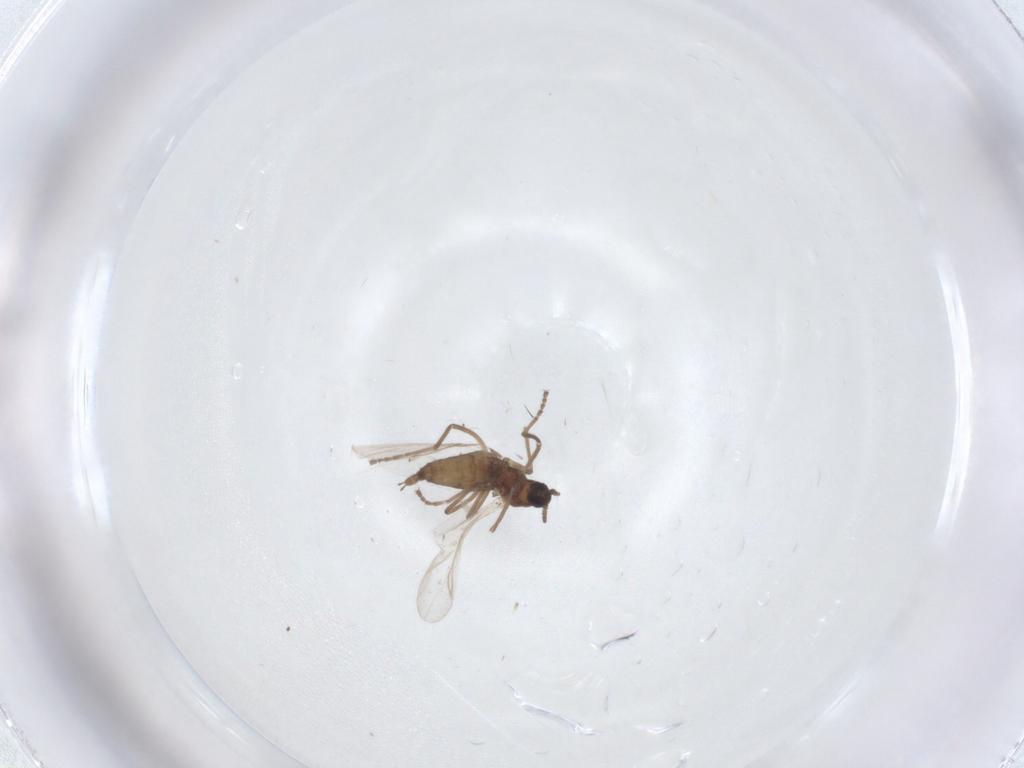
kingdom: Animalia
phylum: Arthropoda
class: Insecta
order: Diptera
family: Cecidomyiidae
